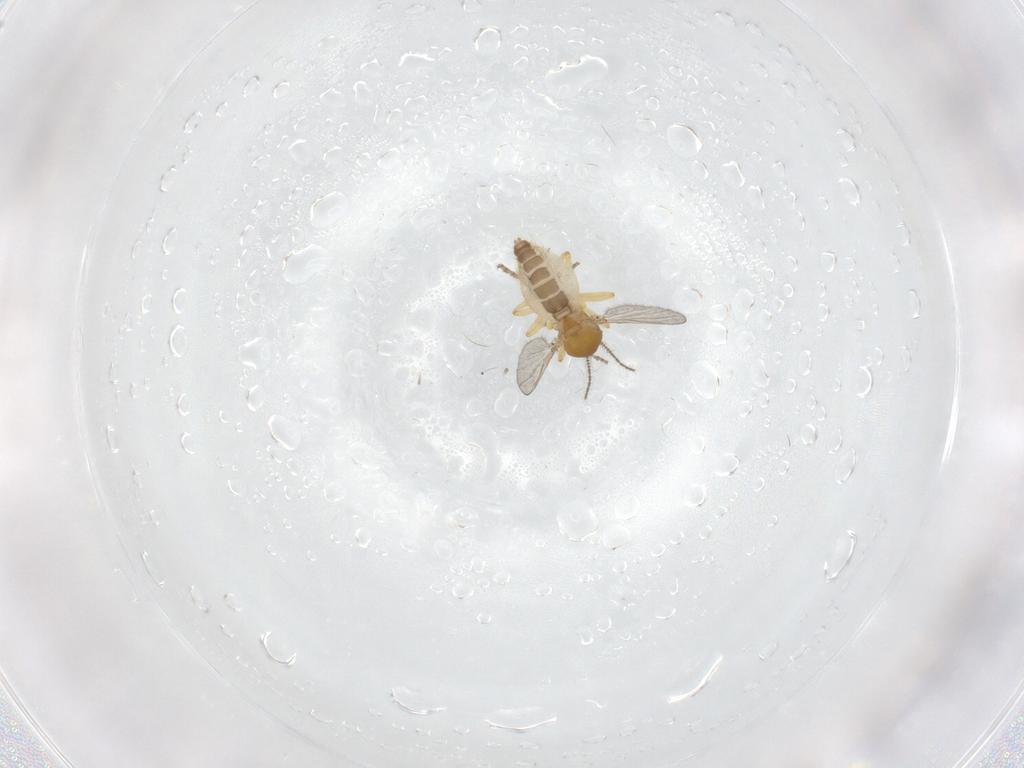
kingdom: Animalia
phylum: Arthropoda
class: Insecta
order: Diptera
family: Ceratopogonidae
